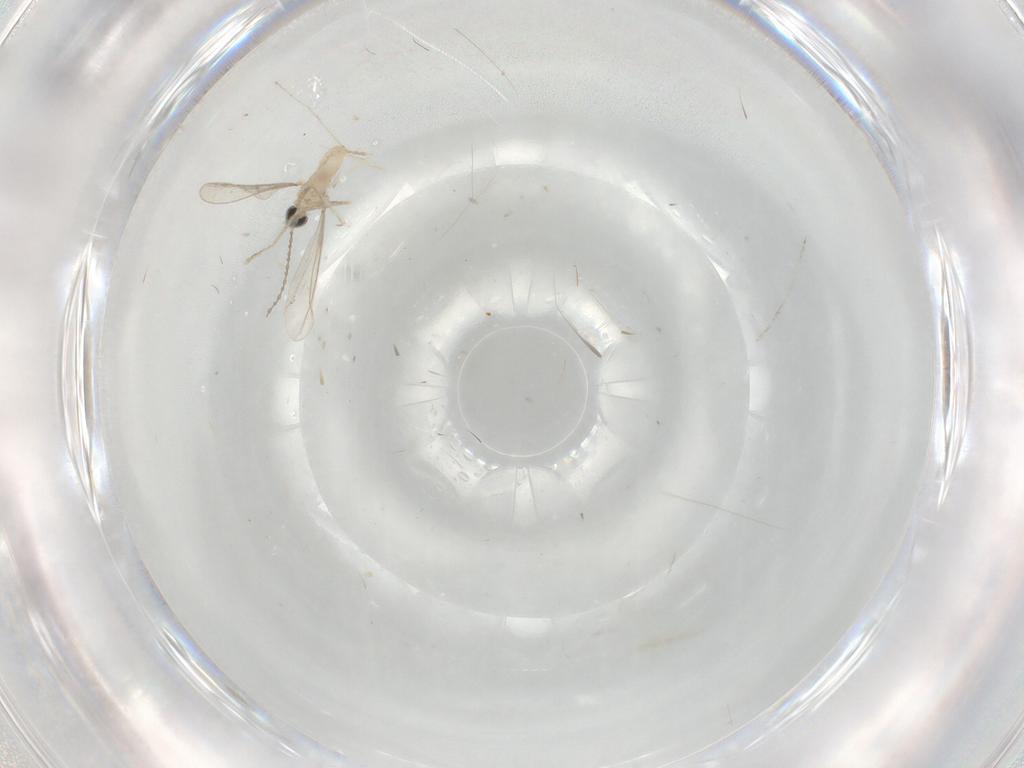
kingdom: Animalia
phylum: Arthropoda
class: Insecta
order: Diptera
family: Cecidomyiidae
